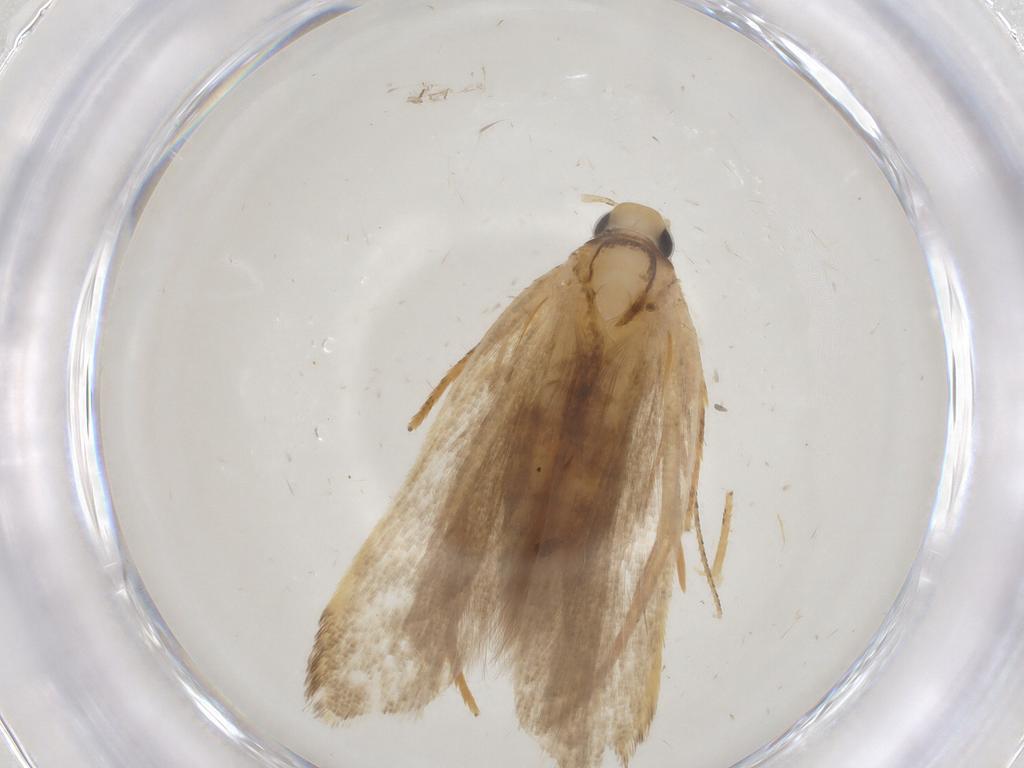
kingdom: Animalia
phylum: Arthropoda
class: Insecta
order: Lepidoptera
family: Gelechiidae
